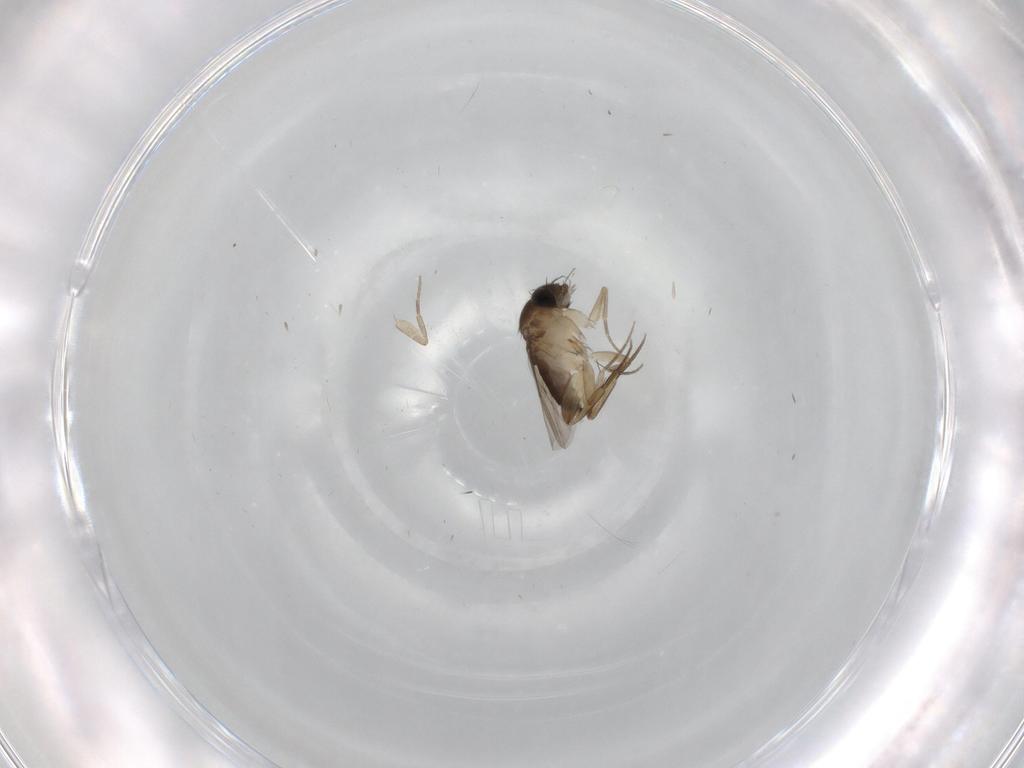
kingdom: Animalia
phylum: Arthropoda
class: Insecta
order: Diptera
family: Phoridae
